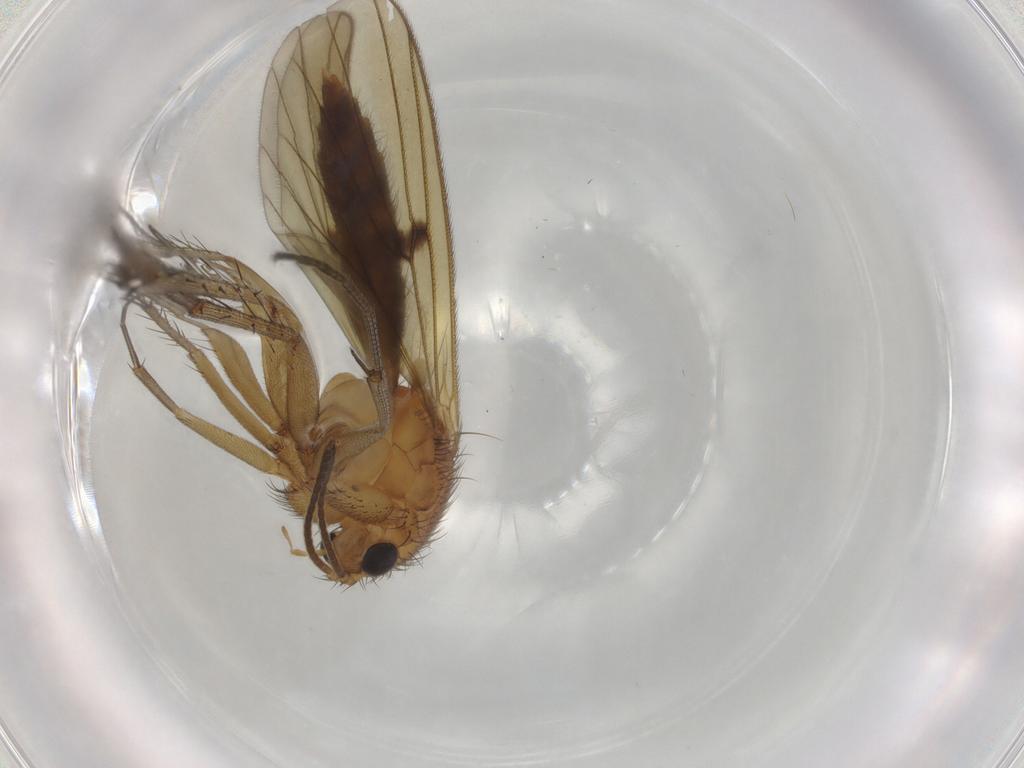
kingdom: Animalia
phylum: Arthropoda
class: Insecta
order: Diptera
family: Mycetophilidae
